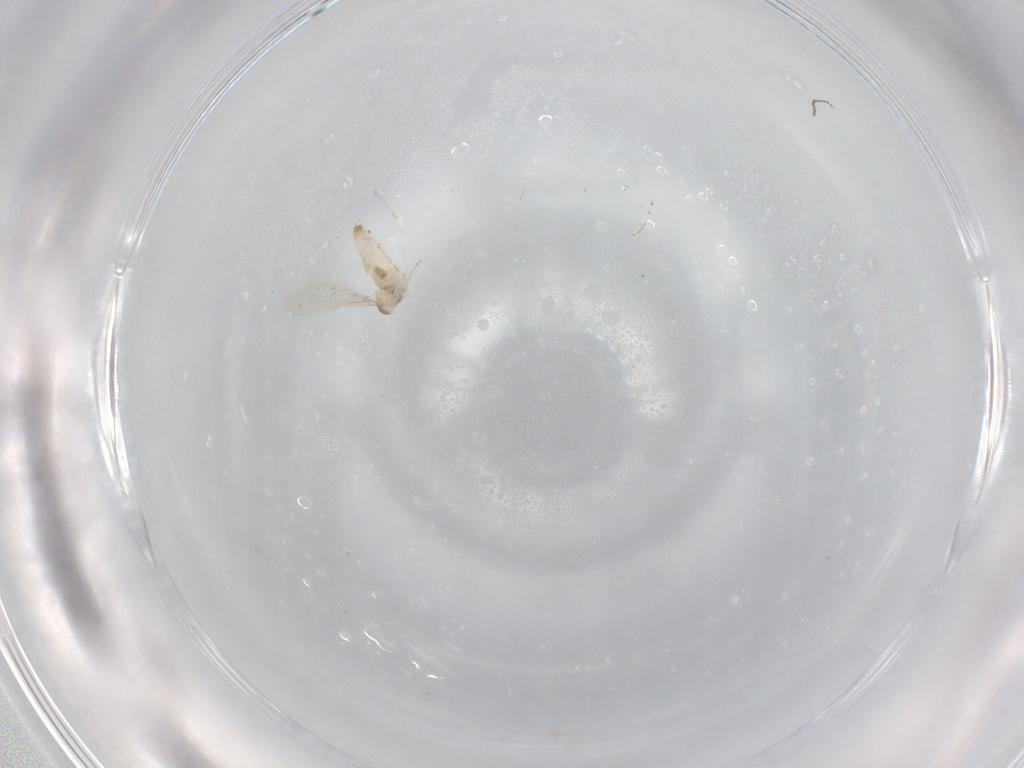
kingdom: Animalia
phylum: Arthropoda
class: Insecta
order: Diptera
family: Cecidomyiidae
